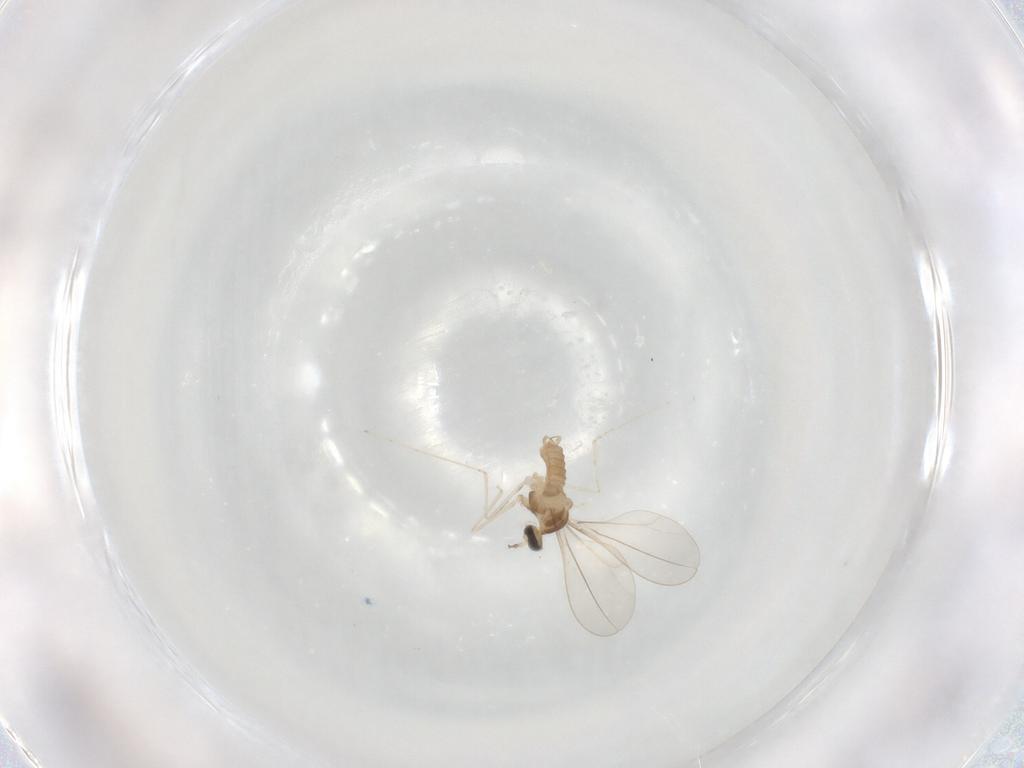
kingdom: Animalia
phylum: Arthropoda
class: Insecta
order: Diptera
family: Cecidomyiidae
